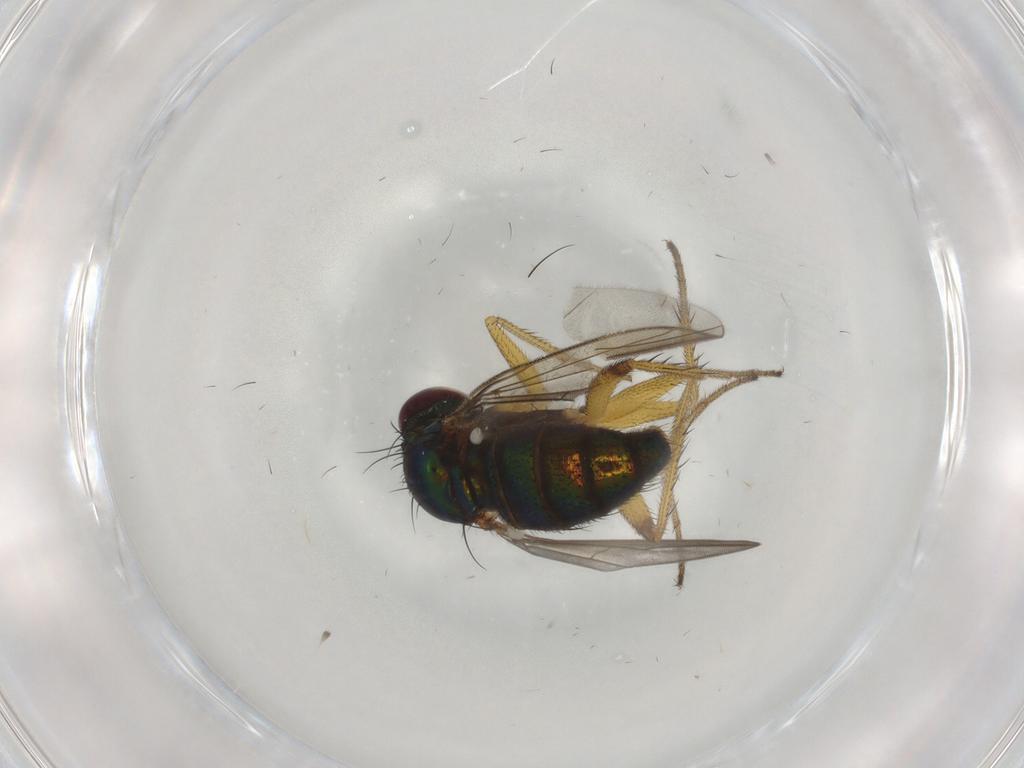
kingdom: Animalia
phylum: Arthropoda
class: Insecta
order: Diptera
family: Dolichopodidae
